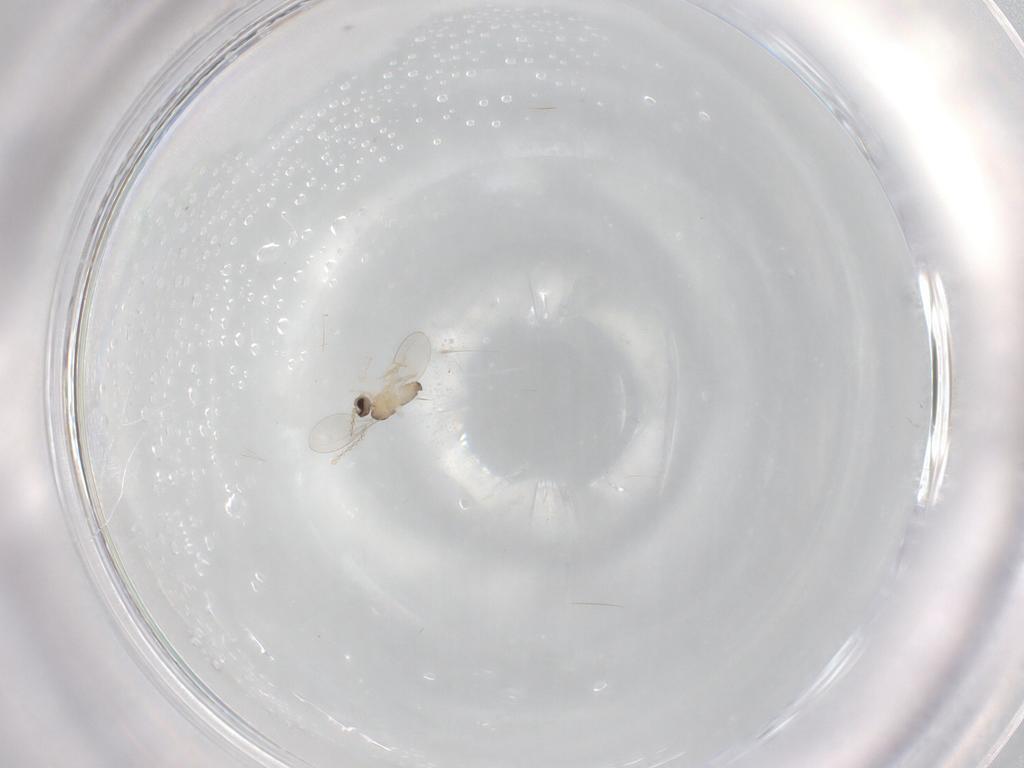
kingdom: Animalia
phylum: Arthropoda
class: Insecta
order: Diptera
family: Cecidomyiidae
